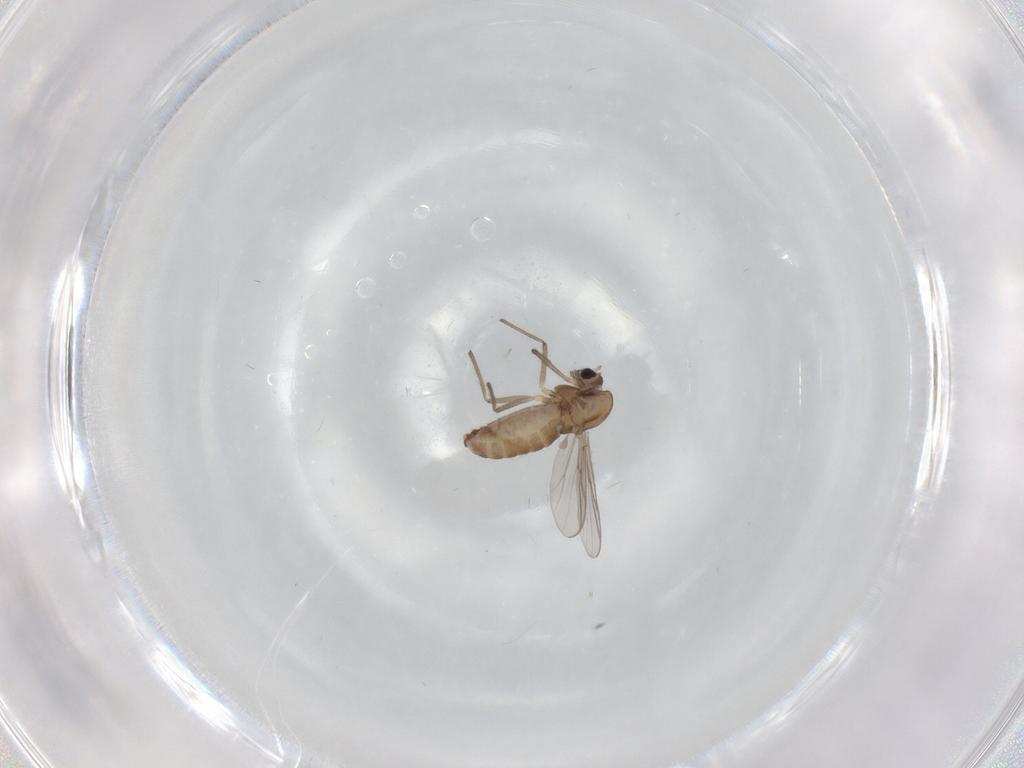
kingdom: Animalia
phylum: Arthropoda
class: Insecta
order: Diptera
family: Chironomidae
